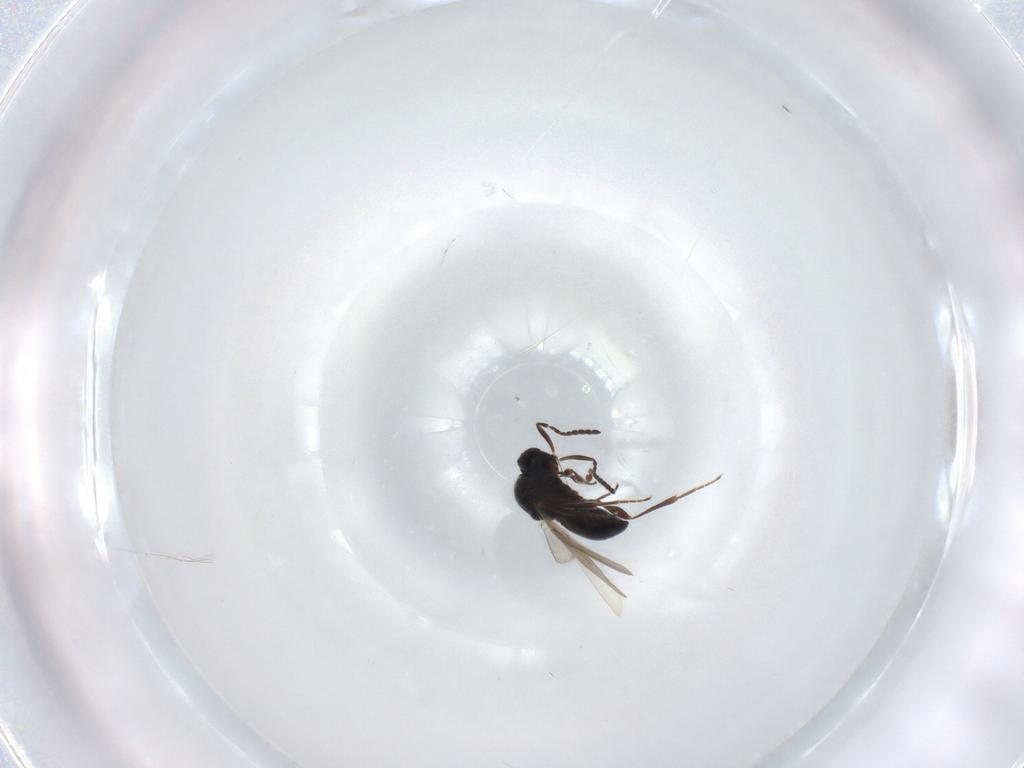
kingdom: Animalia
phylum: Arthropoda
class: Insecta
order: Hymenoptera
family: Platygastridae
